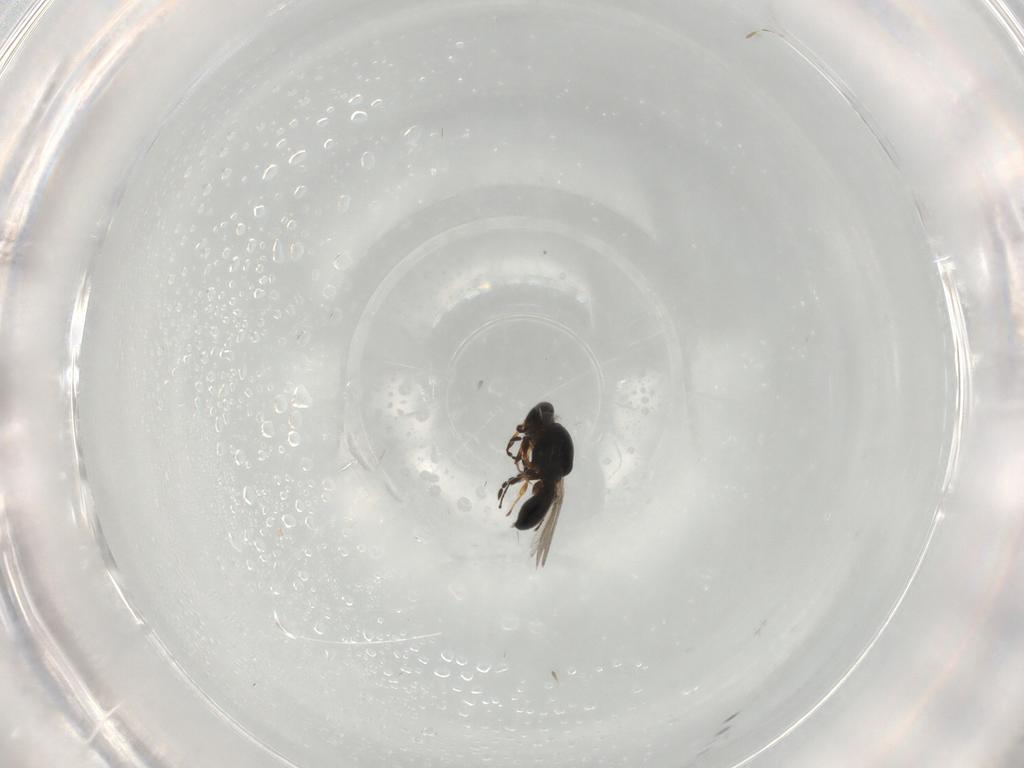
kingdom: Animalia
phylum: Arthropoda
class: Insecta
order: Hymenoptera
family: Platygastridae
